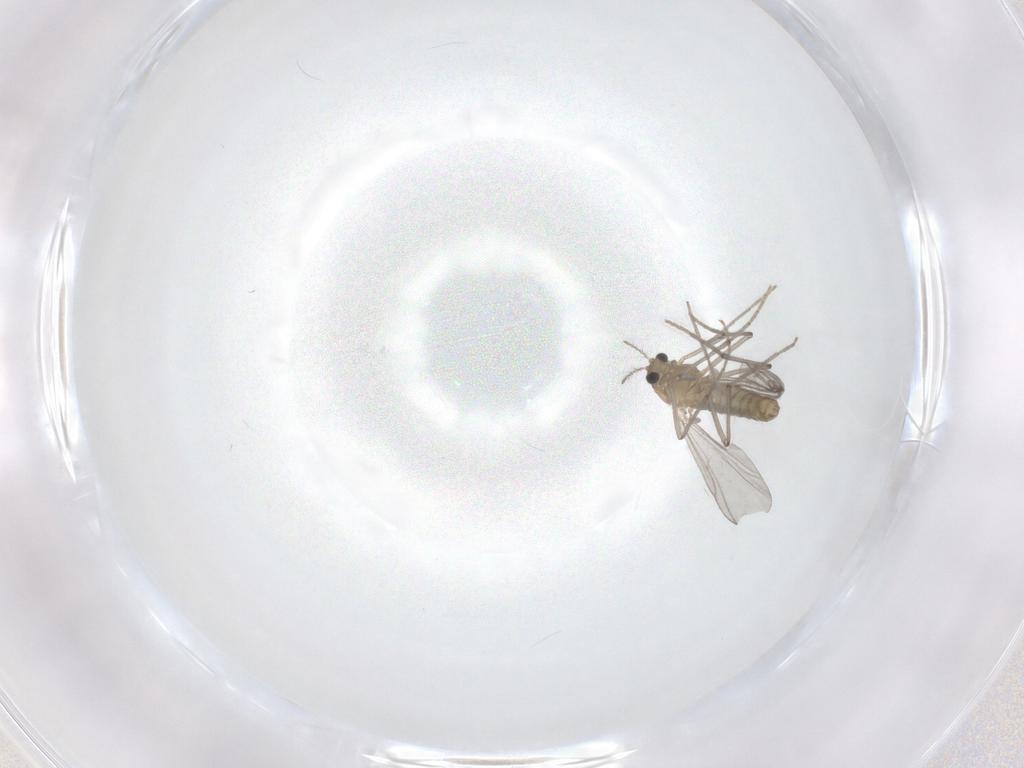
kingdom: Animalia
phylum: Arthropoda
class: Insecta
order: Diptera
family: Chironomidae
